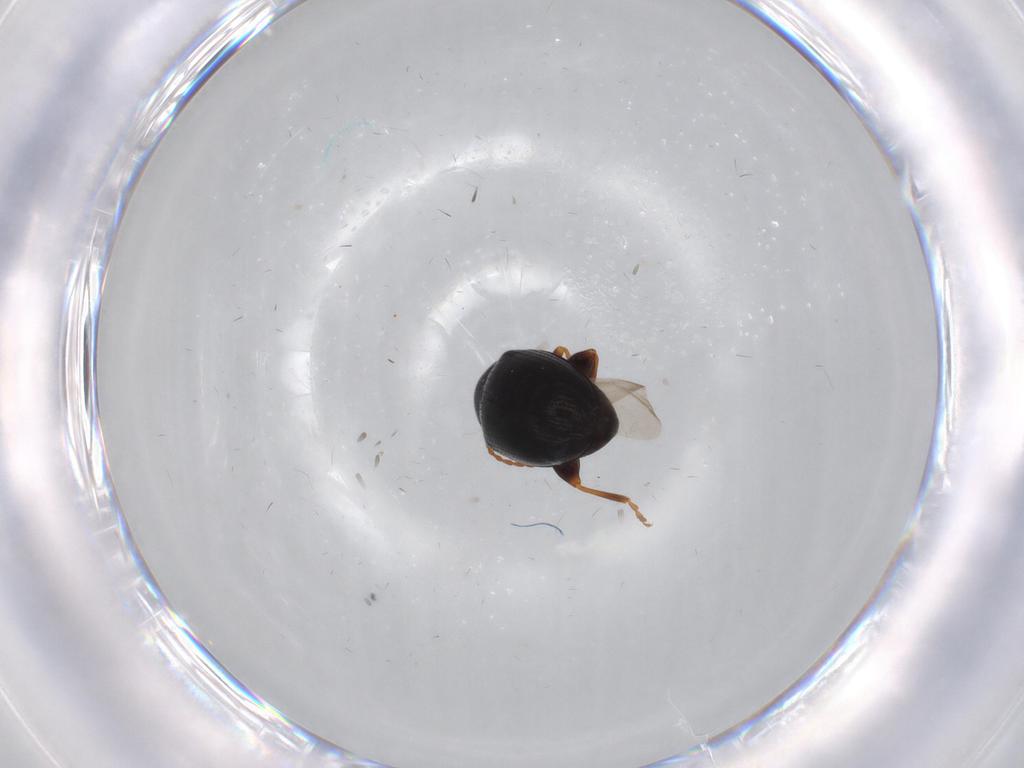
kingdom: Animalia
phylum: Arthropoda
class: Insecta
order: Coleoptera
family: Chrysomelidae
